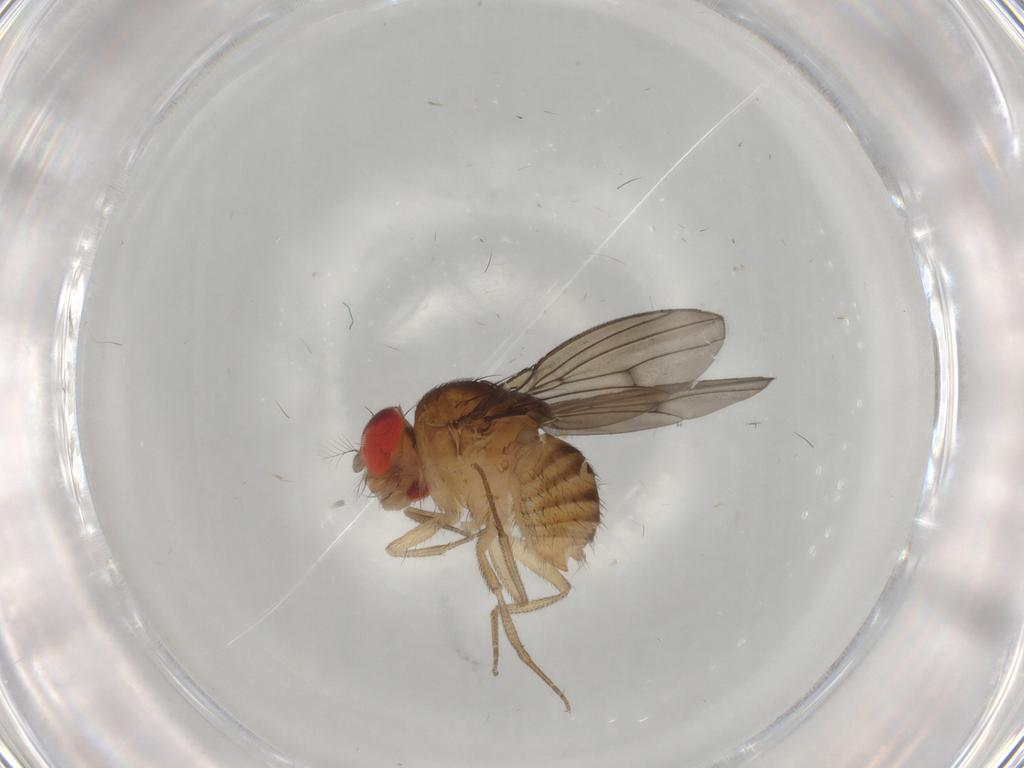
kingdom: Animalia
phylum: Arthropoda
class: Insecta
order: Diptera
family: Drosophilidae
